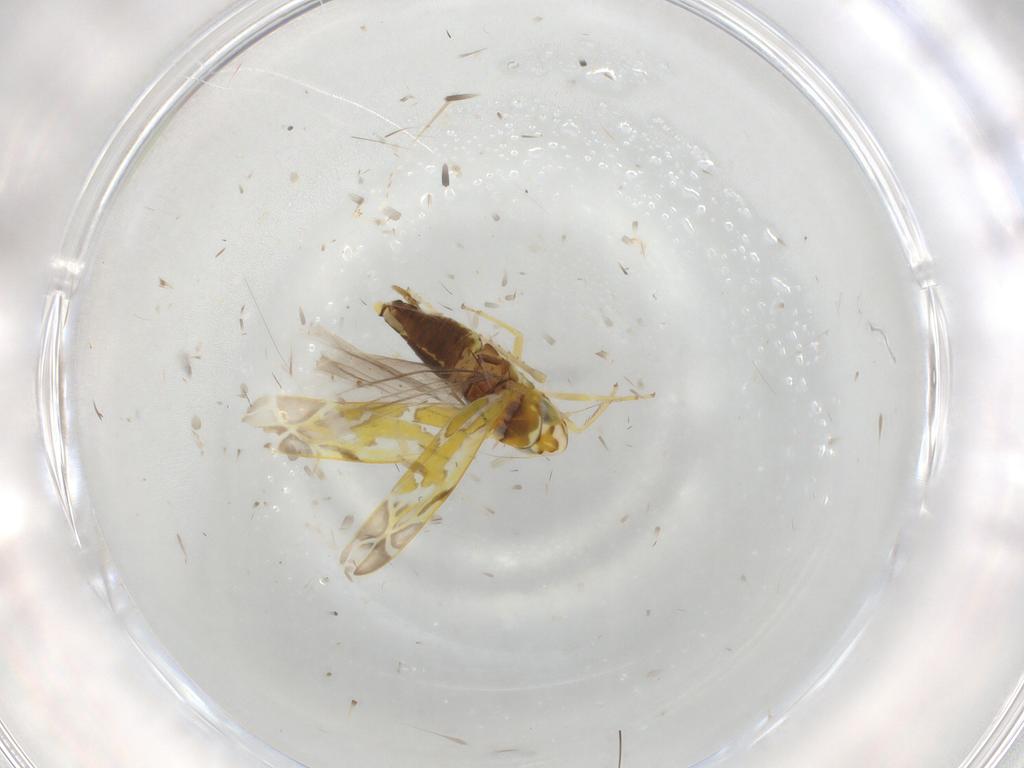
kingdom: Animalia
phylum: Arthropoda
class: Insecta
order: Hemiptera
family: Cicadellidae
